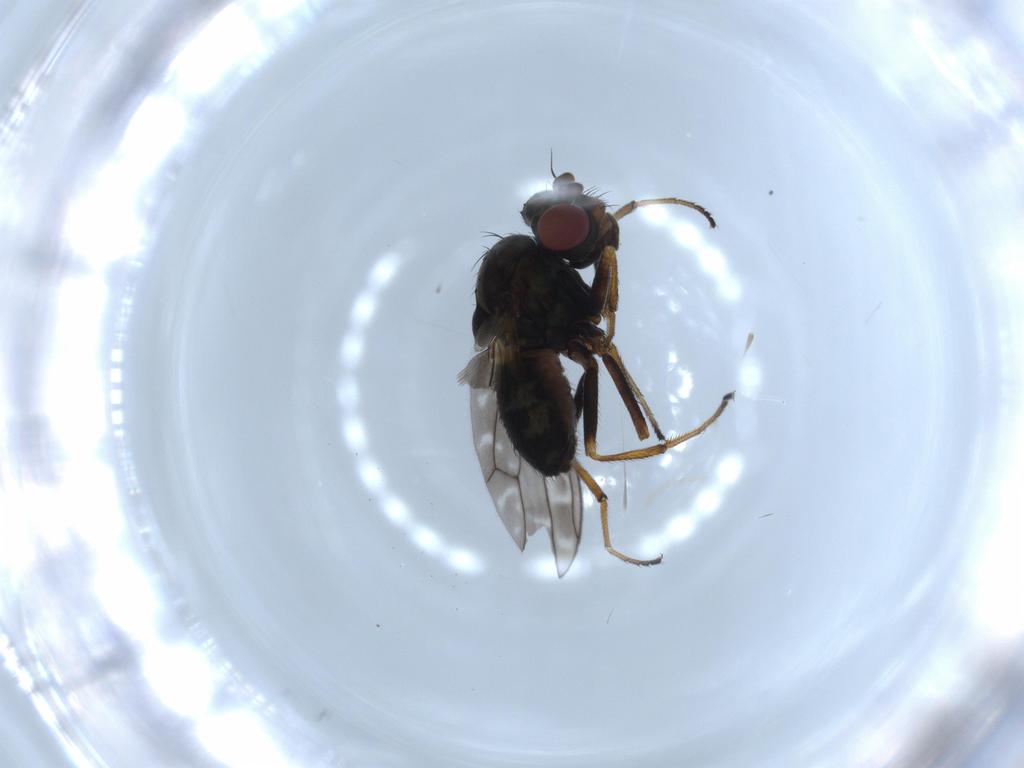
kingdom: Animalia
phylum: Arthropoda
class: Insecta
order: Diptera
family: Ephydridae
